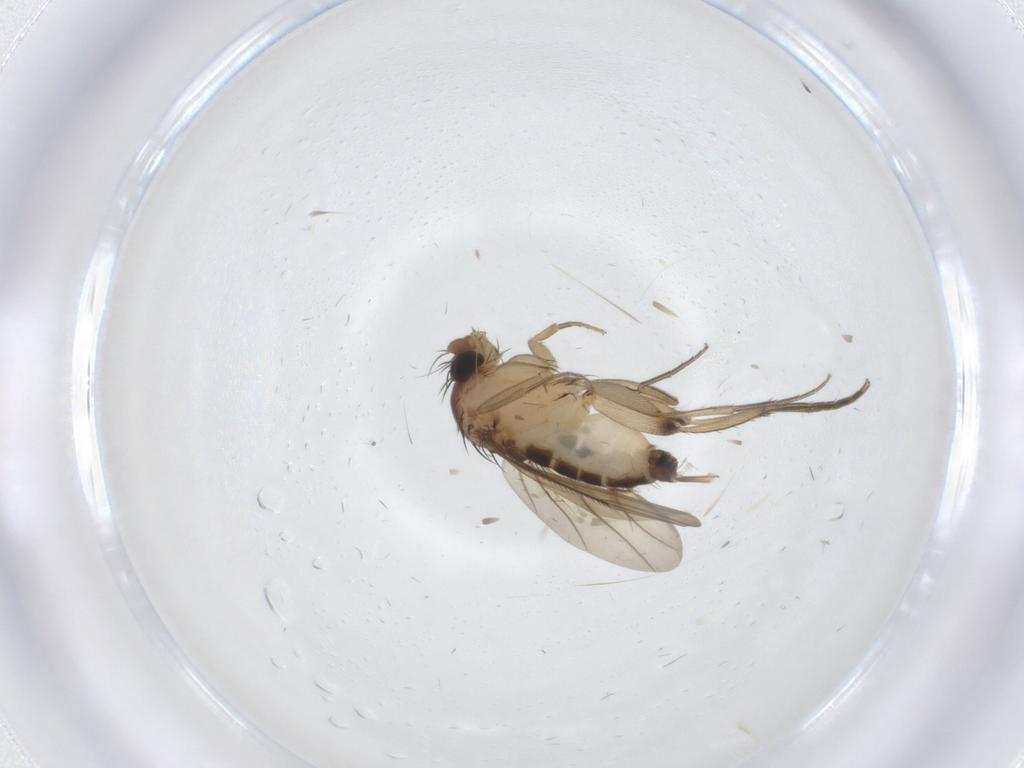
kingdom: Animalia
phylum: Arthropoda
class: Insecta
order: Diptera
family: Phoridae
